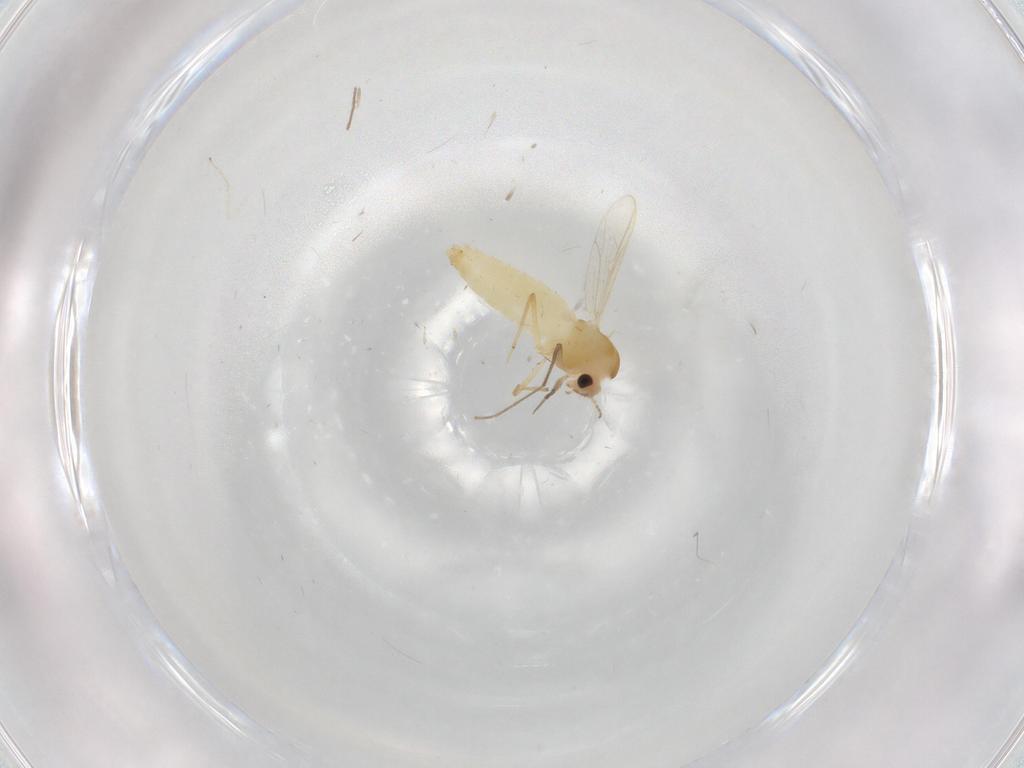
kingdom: Animalia
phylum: Arthropoda
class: Insecta
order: Diptera
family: Chironomidae
